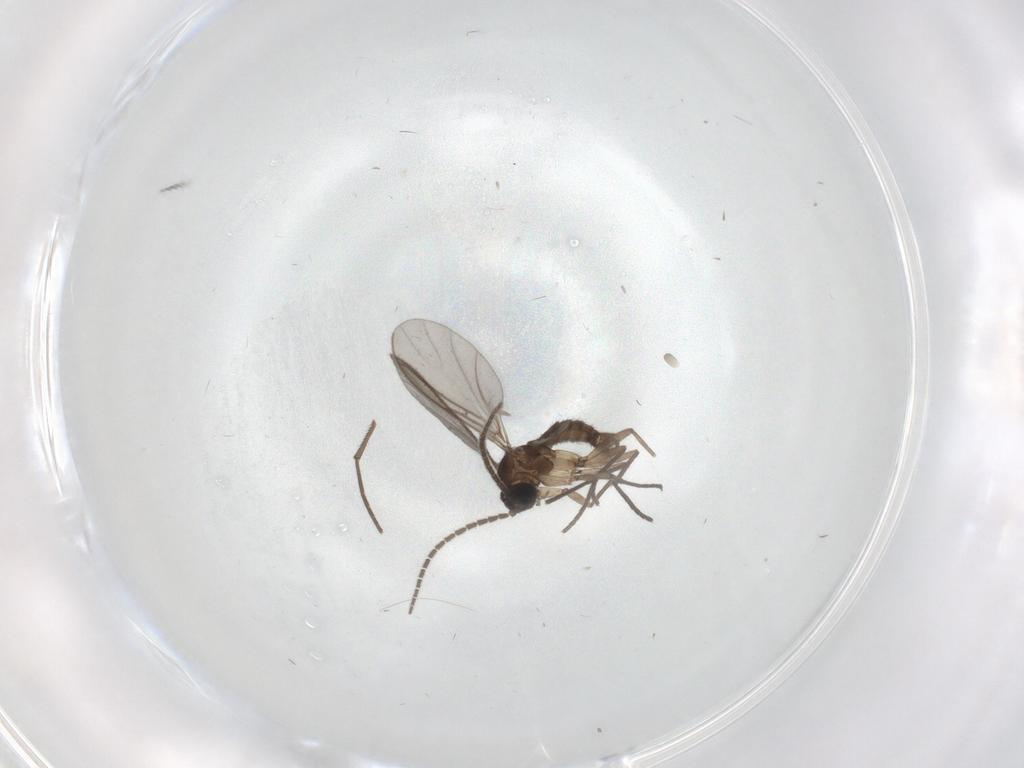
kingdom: Animalia
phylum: Arthropoda
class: Insecta
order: Diptera
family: Sciaridae
